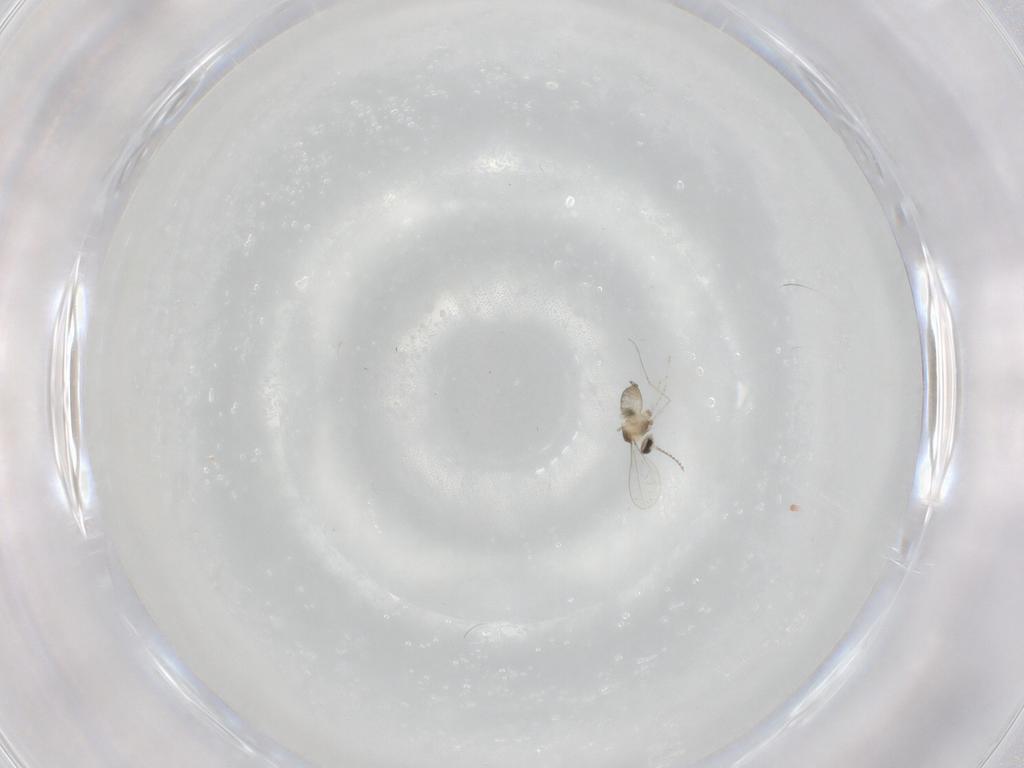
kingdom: Animalia
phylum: Arthropoda
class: Insecta
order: Diptera
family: Cecidomyiidae
